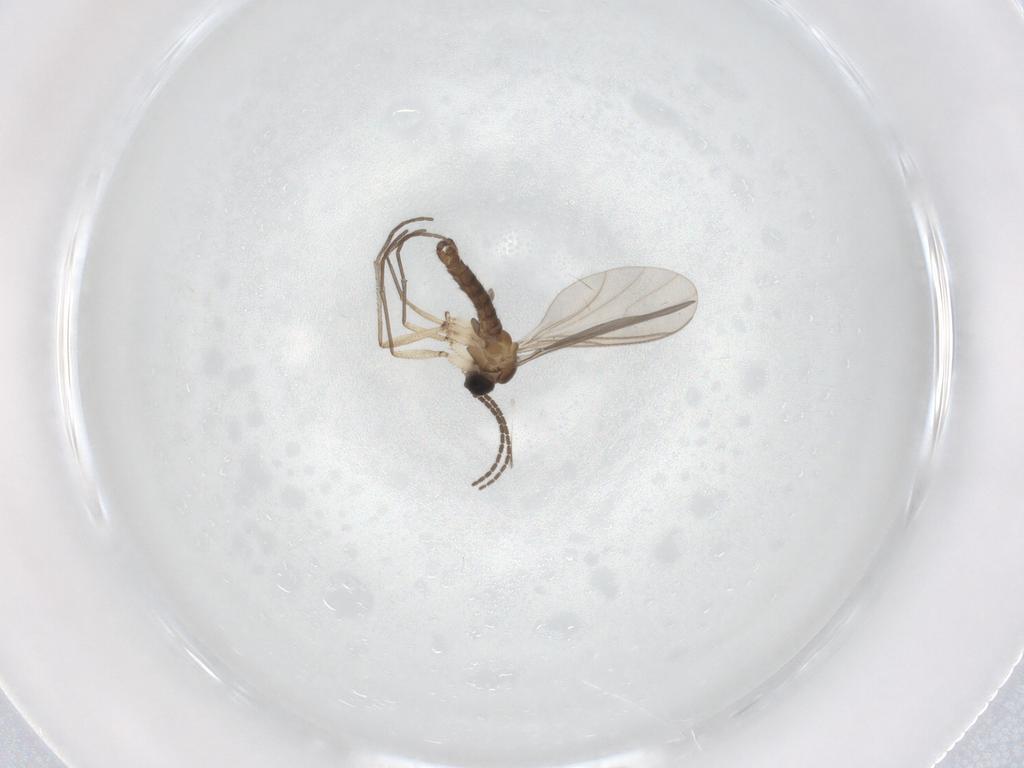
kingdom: Animalia
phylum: Arthropoda
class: Insecta
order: Diptera
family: Sciaridae
